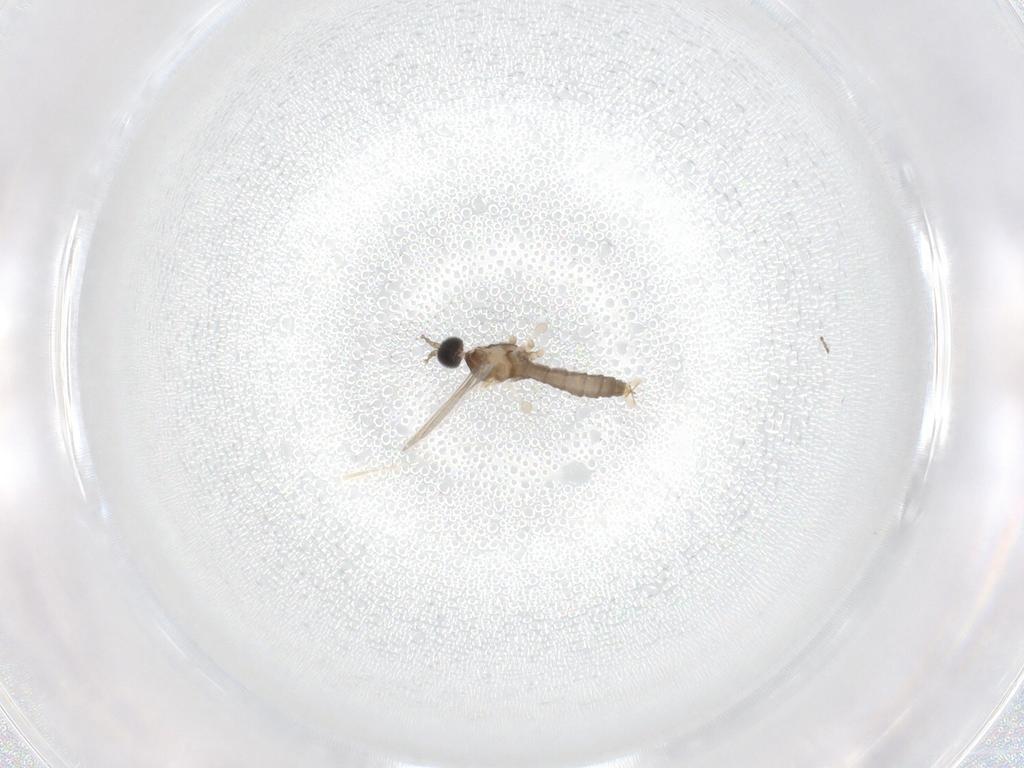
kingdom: Animalia
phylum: Arthropoda
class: Insecta
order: Diptera
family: Cecidomyiidae
